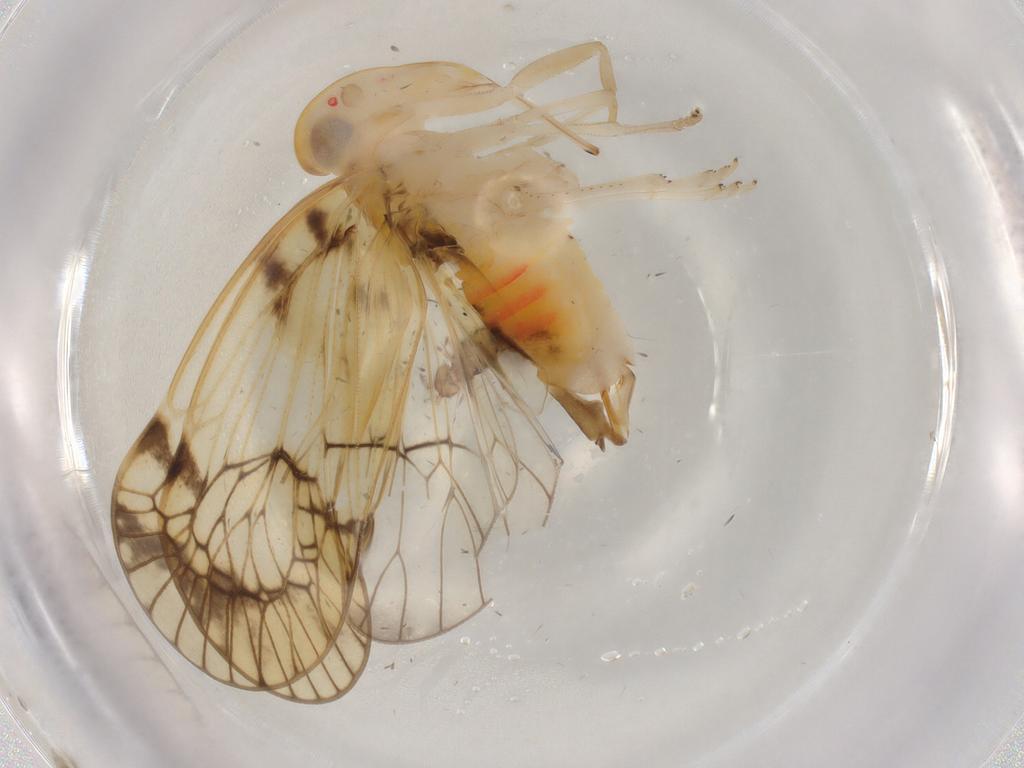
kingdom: Animalia
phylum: Arthropoda
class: Insecta
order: Hemiptera
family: Cixiidae
